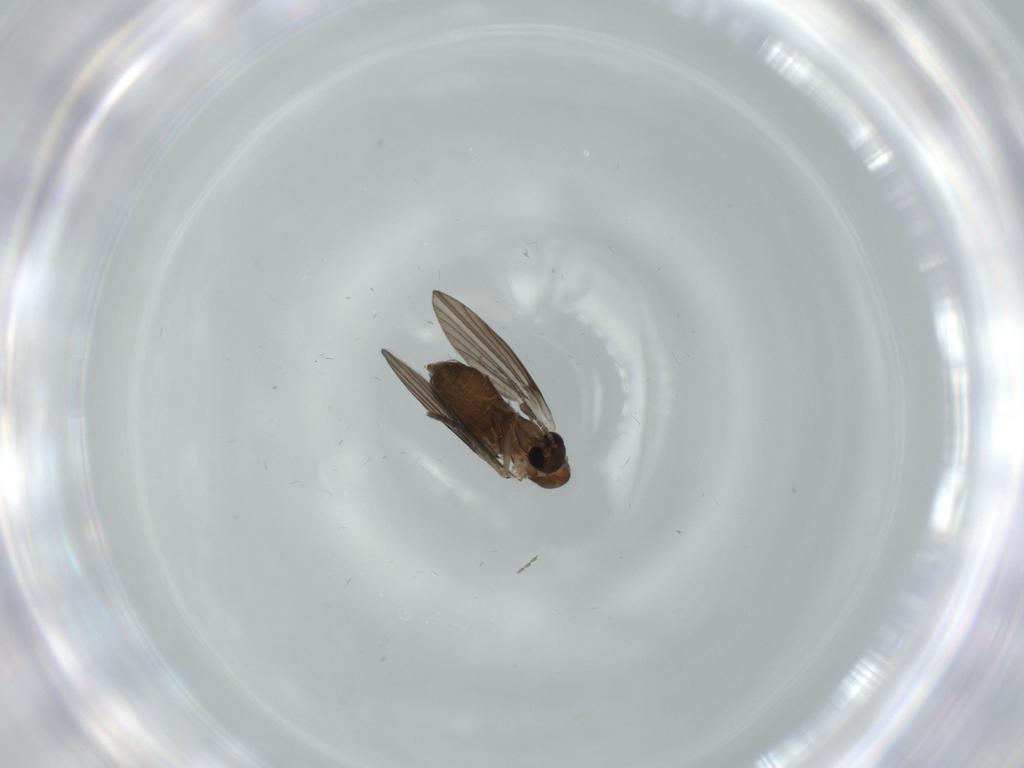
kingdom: Animalia
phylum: Arthropoda
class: Insecta
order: Diptera
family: Psychodidae
